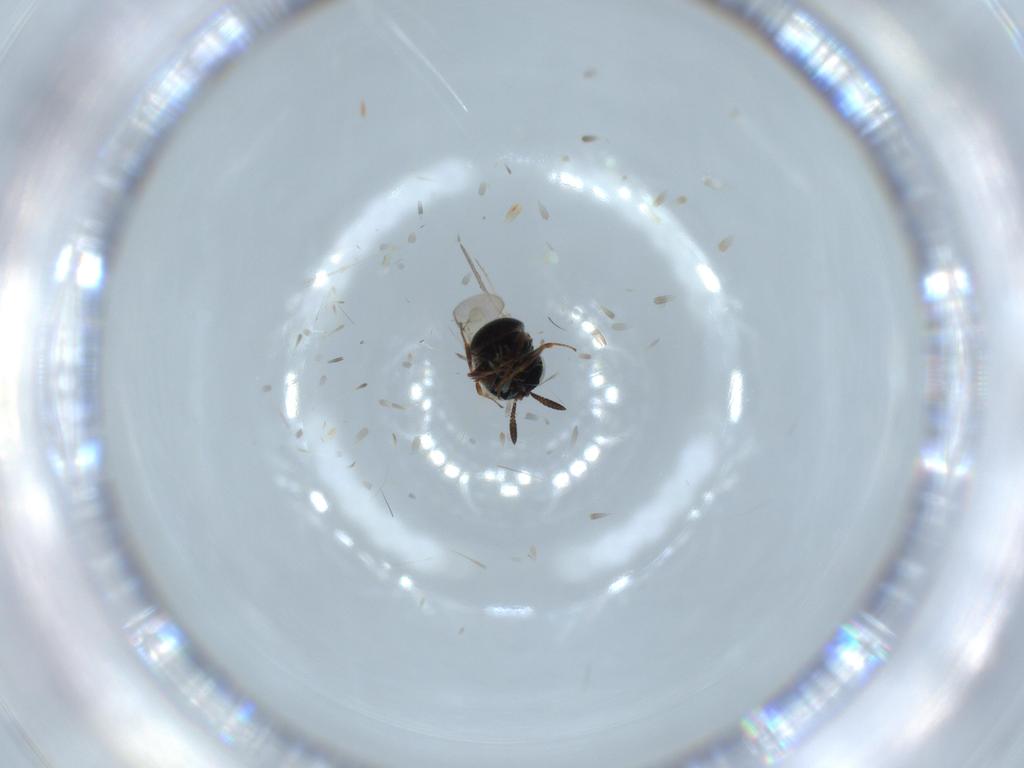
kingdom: Animalia
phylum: Arthropoda
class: Insecta
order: Hymenoptera
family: Scelionidae
